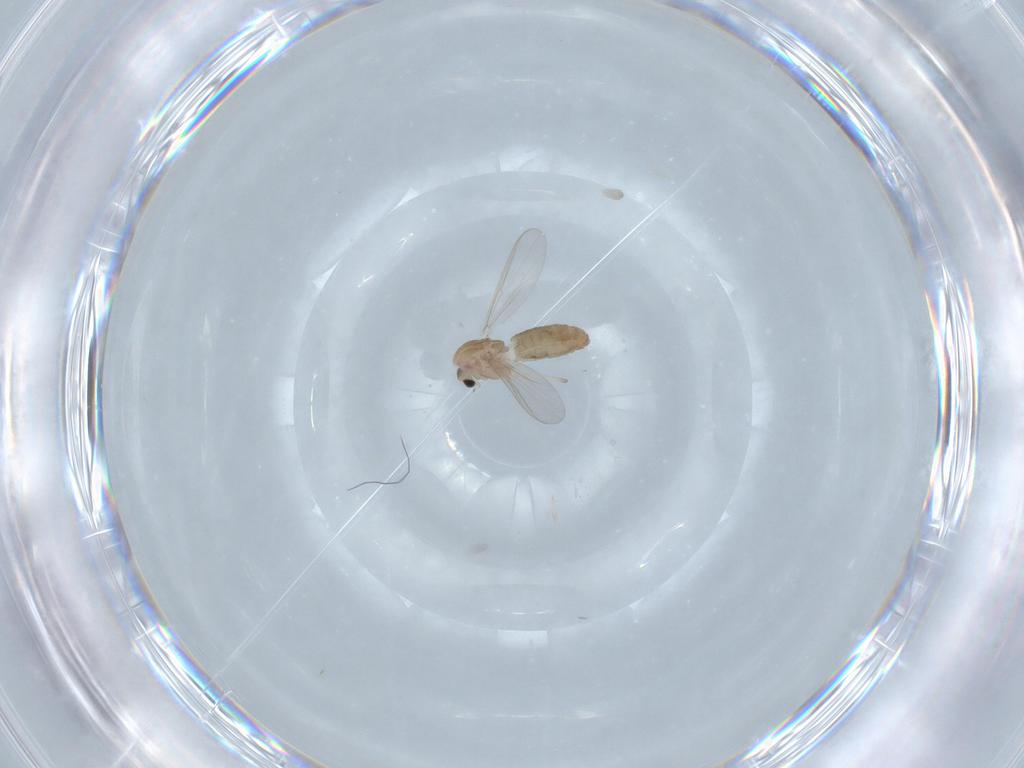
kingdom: Animalia
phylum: Arthropoda
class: Insecta
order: Diptera
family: Chironomidae
